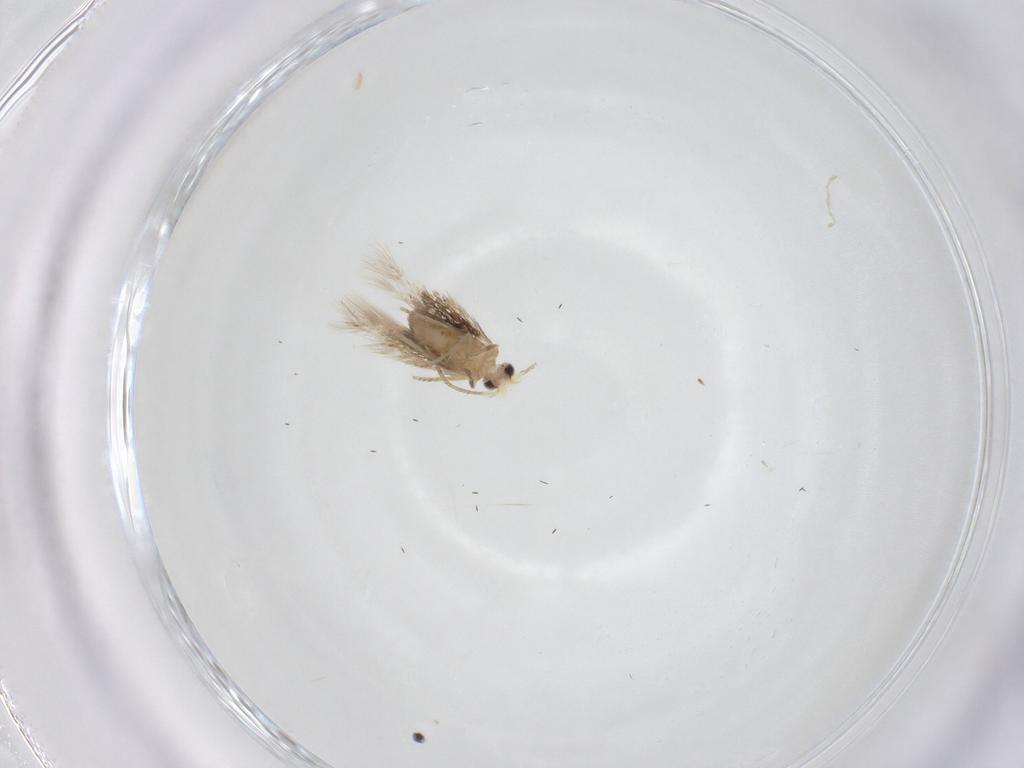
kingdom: Animalia
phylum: Arthropoda
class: Insecta
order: Lepidoptera
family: Nepticulidae
